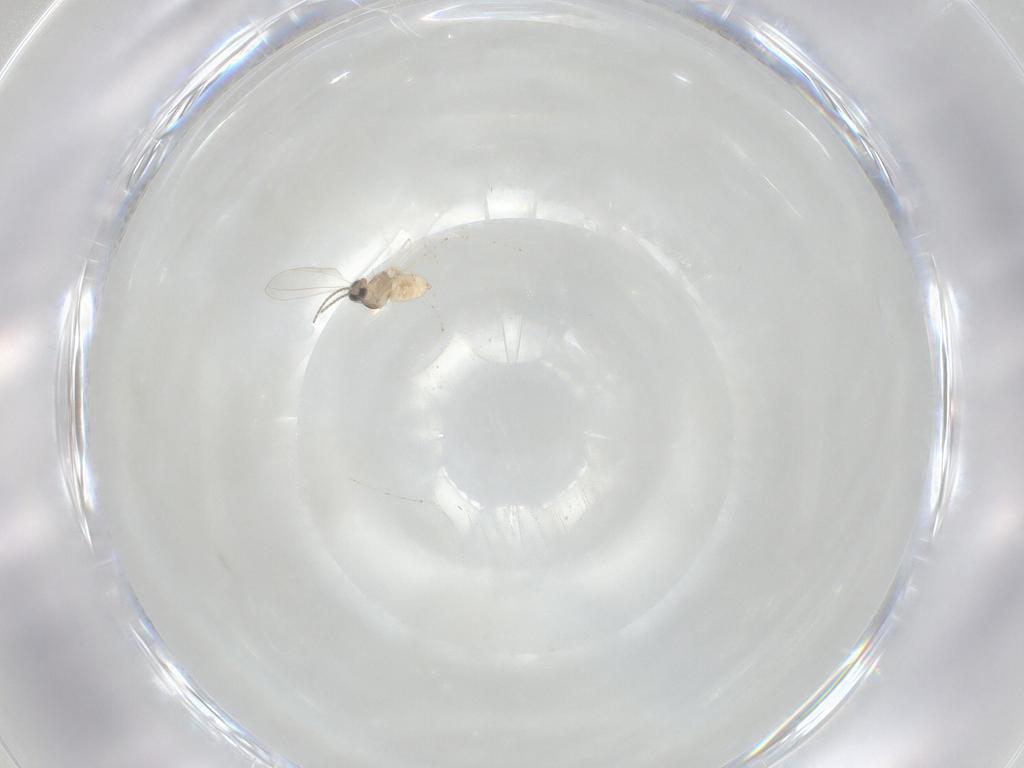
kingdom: Animalia
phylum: Arthropoda
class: Insecta
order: Diptera
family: Cecidomyiidae
